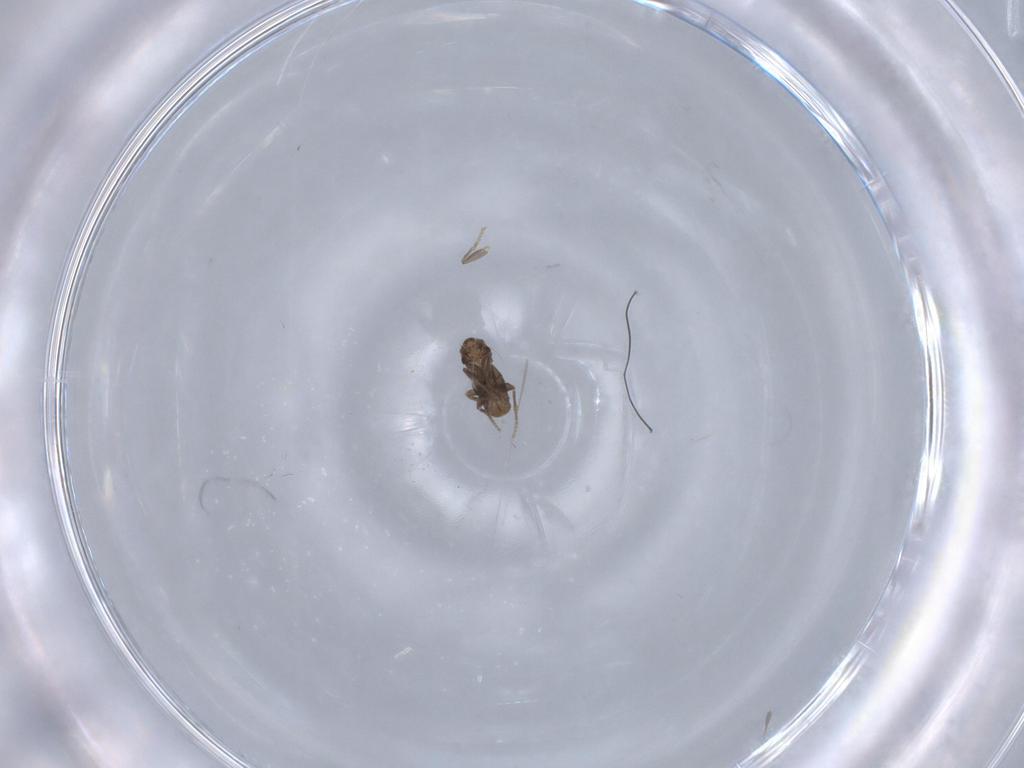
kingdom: Animalia
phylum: Arthropoda
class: Insecta
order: Diptera
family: Phoridae
